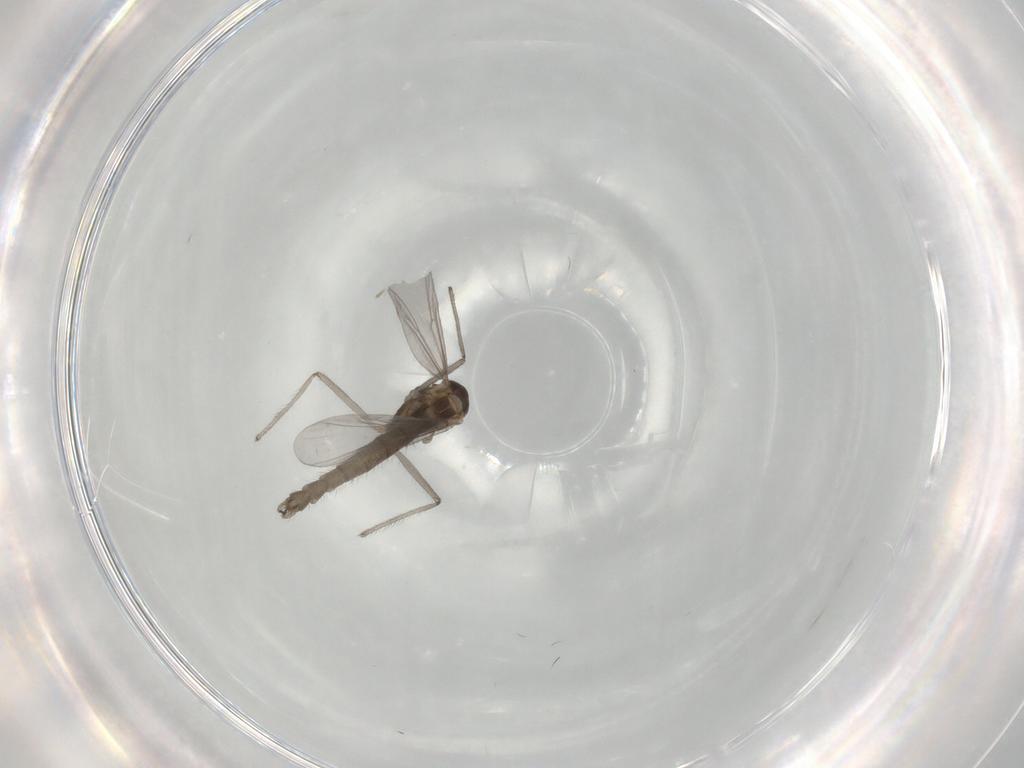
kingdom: Animalia
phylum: Arthropoda
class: Insecta
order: Diptera
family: Chironomidae
